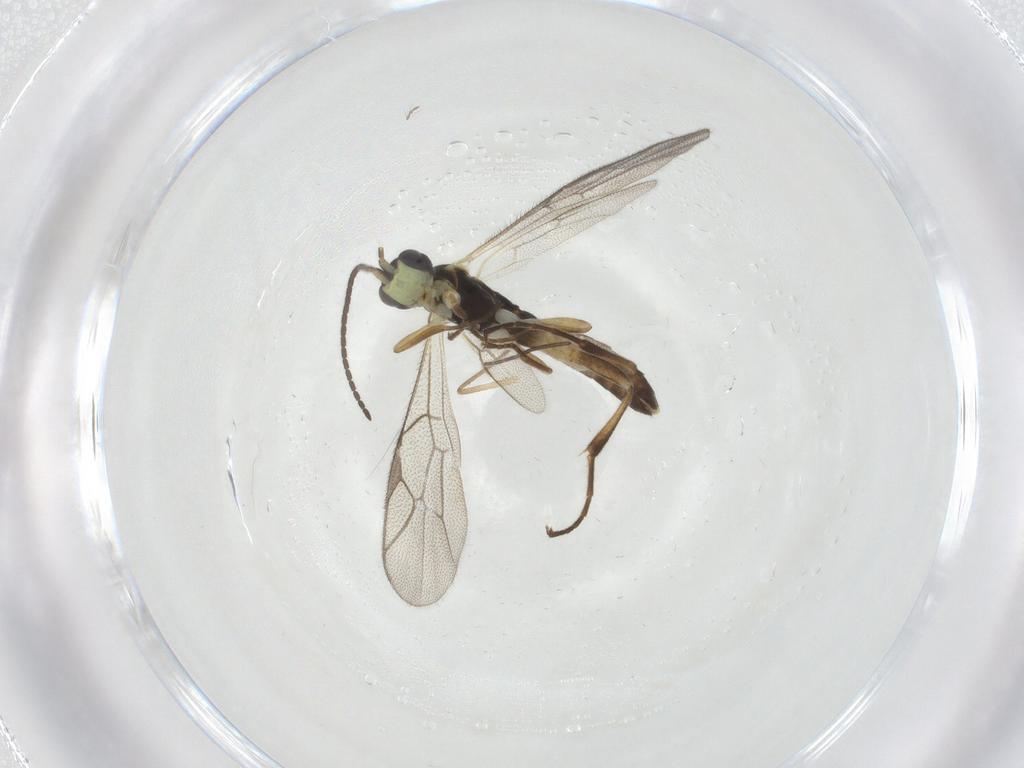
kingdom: Animalia
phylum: Arthropoda
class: Insecta
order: Hymenoptera
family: Ichneumonidae
